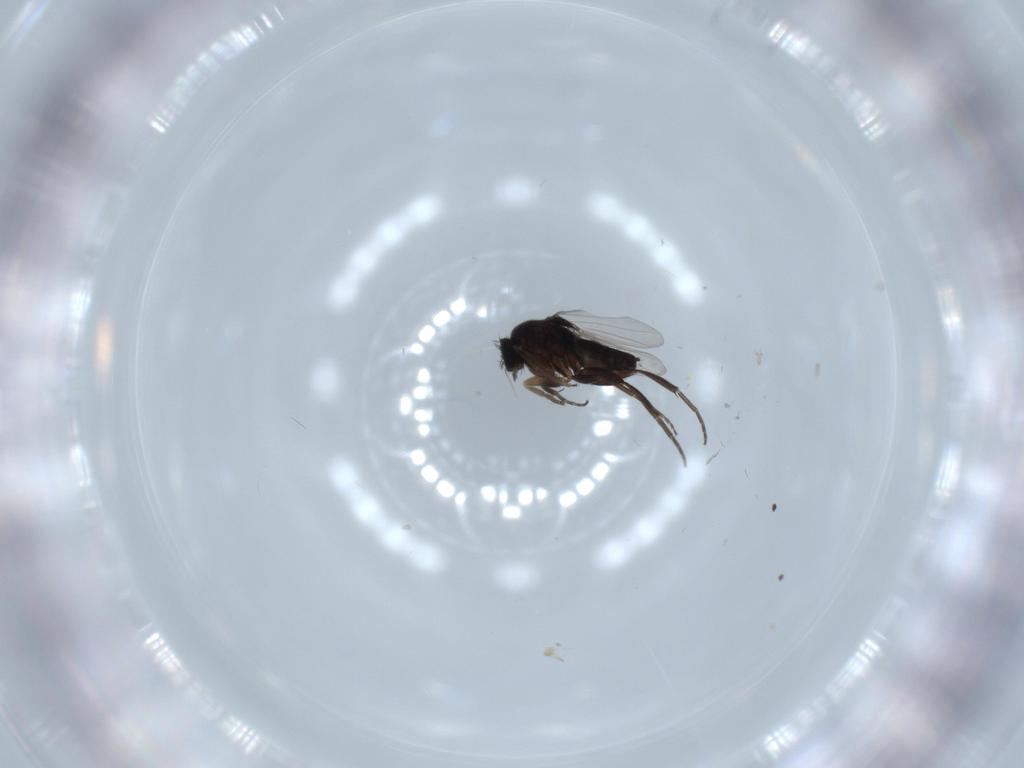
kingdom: Animalia
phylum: Arthropoda
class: Insecta
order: Diptera
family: Phoridae
